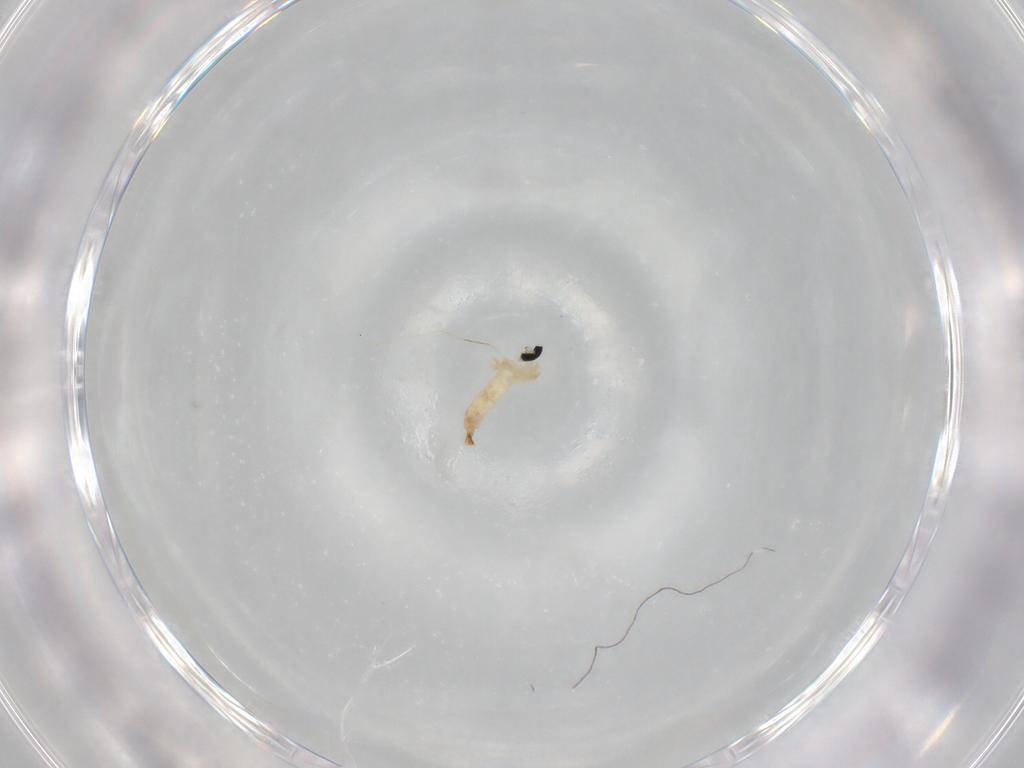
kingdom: Animalia
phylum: Arthropoda
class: Insecta
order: Diptera
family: Cecidomyiidae
